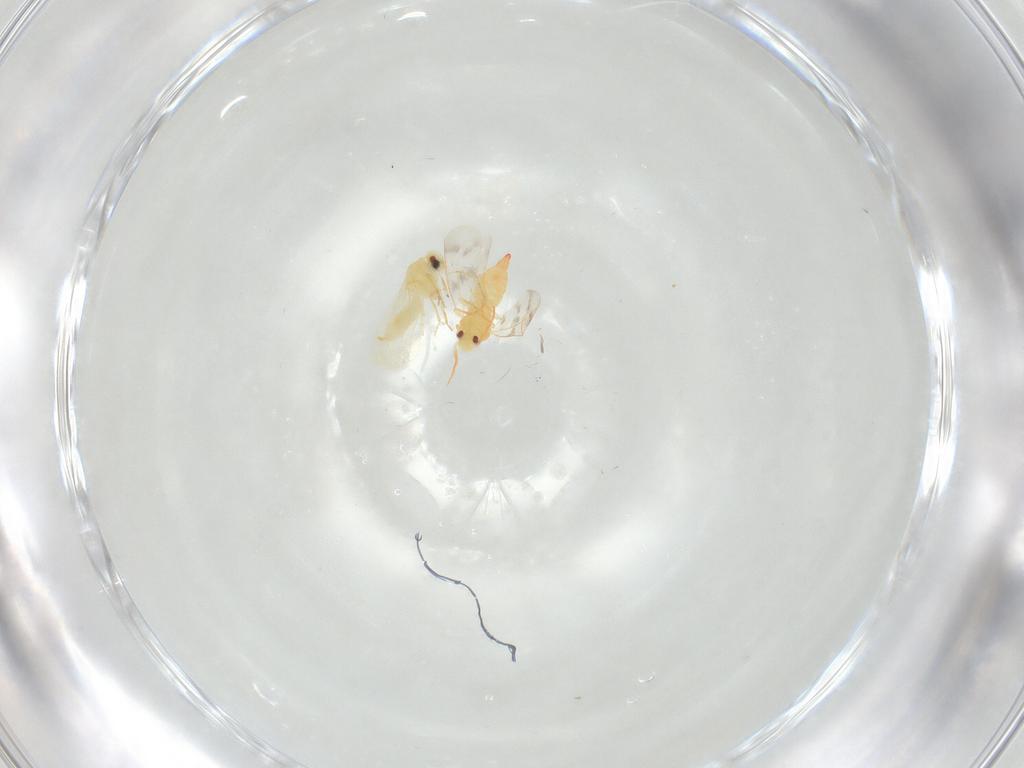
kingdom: Animalia
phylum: Arthropoda
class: Insecta
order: Hemiptera
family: Aleyrodidae
